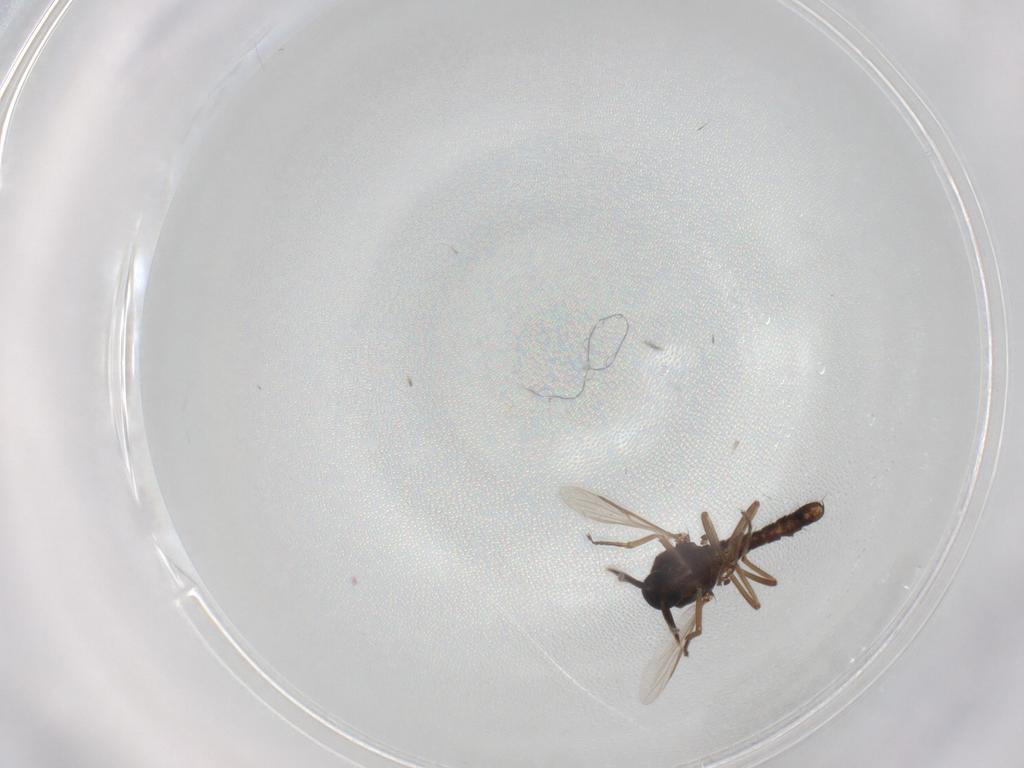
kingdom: Animalia
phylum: Arthropoda
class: Insecta
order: Diptera
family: Ceratopogonidae
